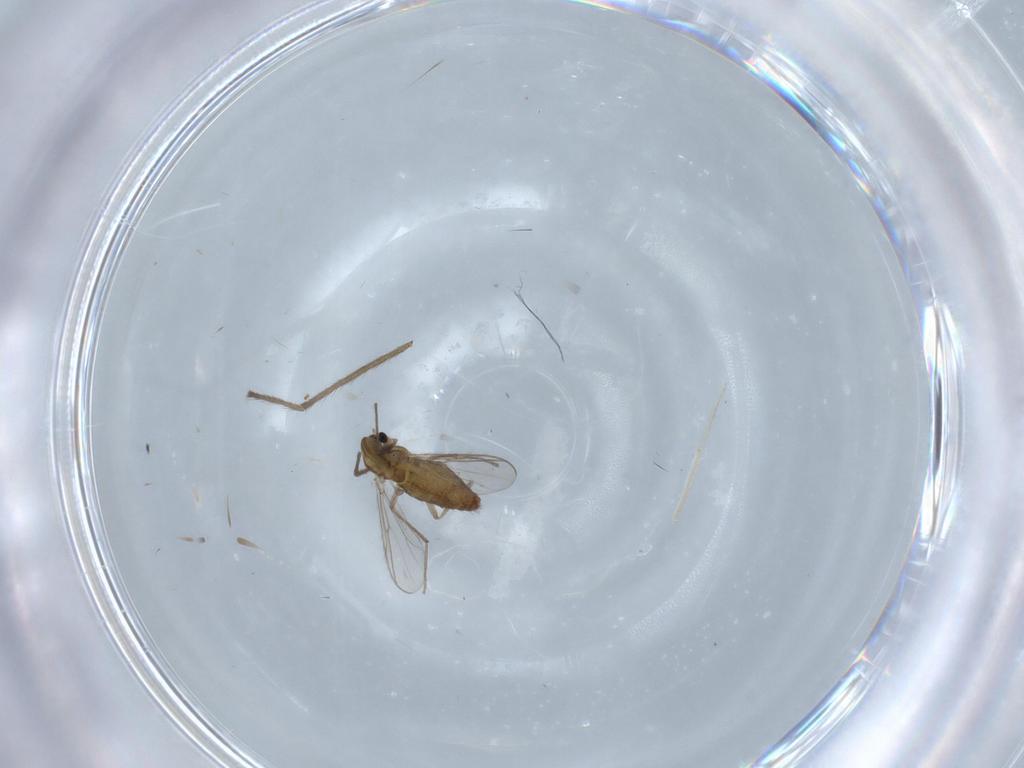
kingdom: Animalia
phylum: Arthropoda
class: Insecta
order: Diptera
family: Chironomidae
